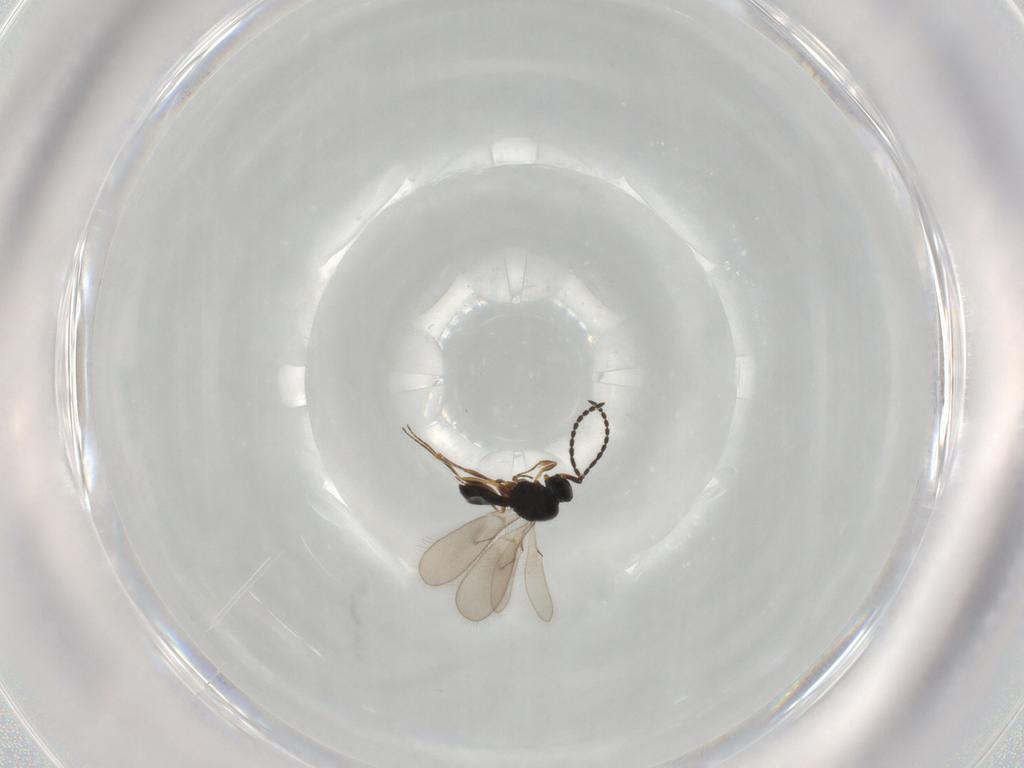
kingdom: Animalia
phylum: Arthropoda
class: Insecta
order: Hymenoptera
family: Scelionidae
